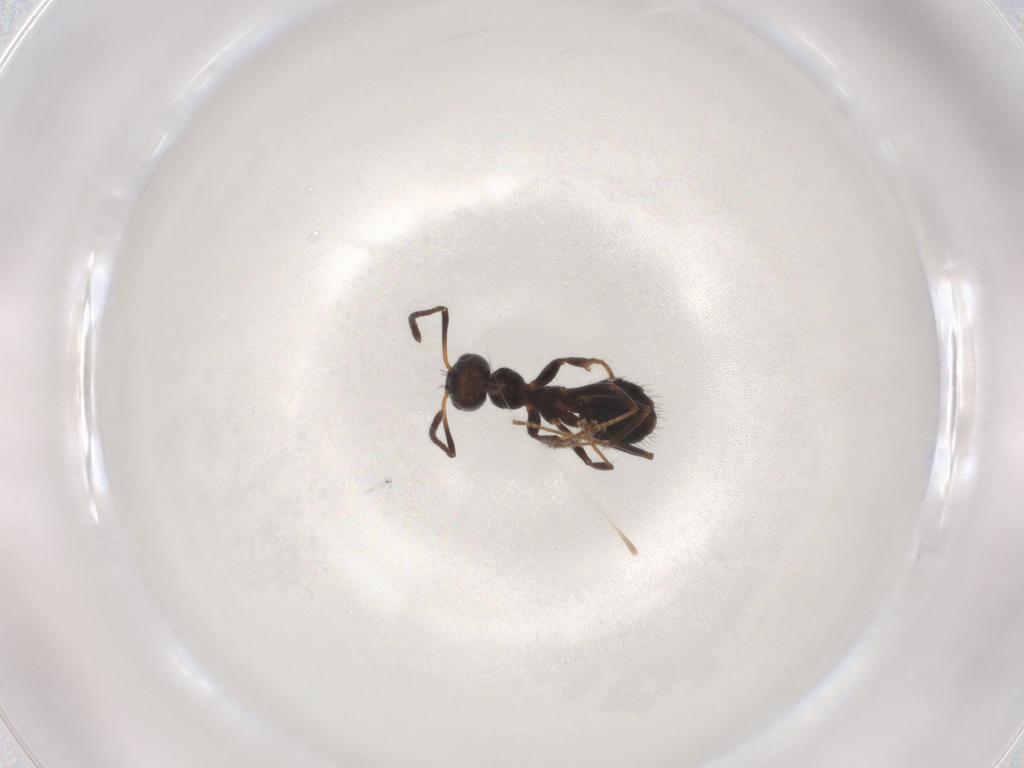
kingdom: Animalia
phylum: Arthropoda
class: Insecta
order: Hymenoptera
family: Formicidae
